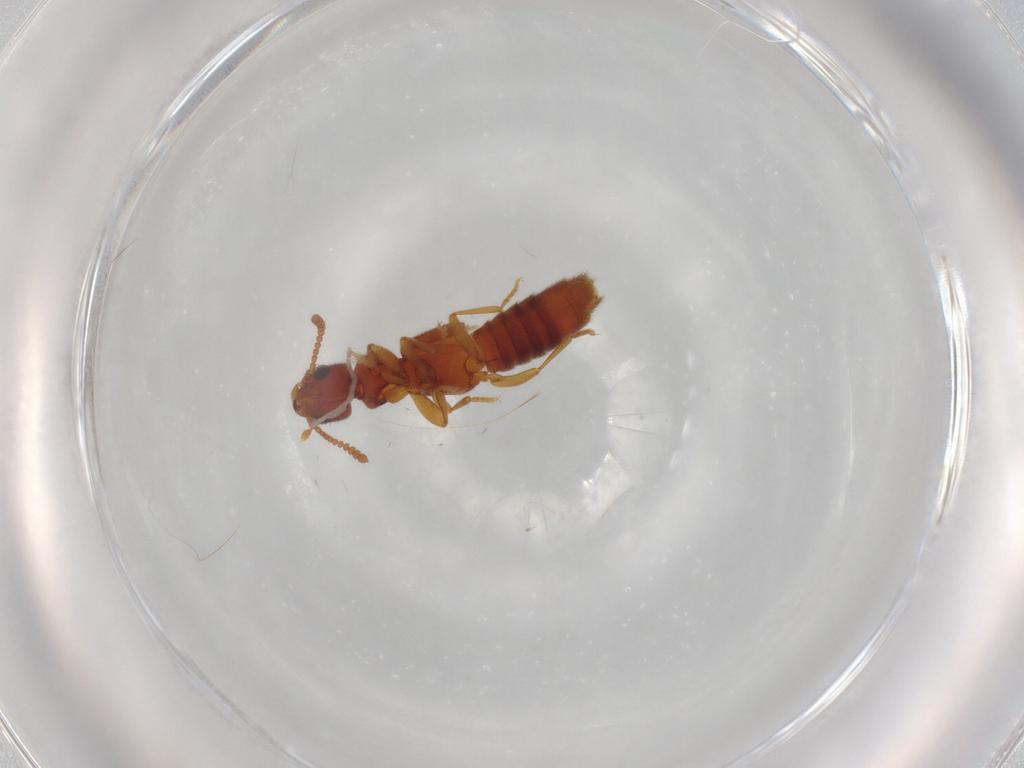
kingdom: Animalia
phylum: Arthropoda
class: Insecta
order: Coleoptera
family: Staphylinidae
